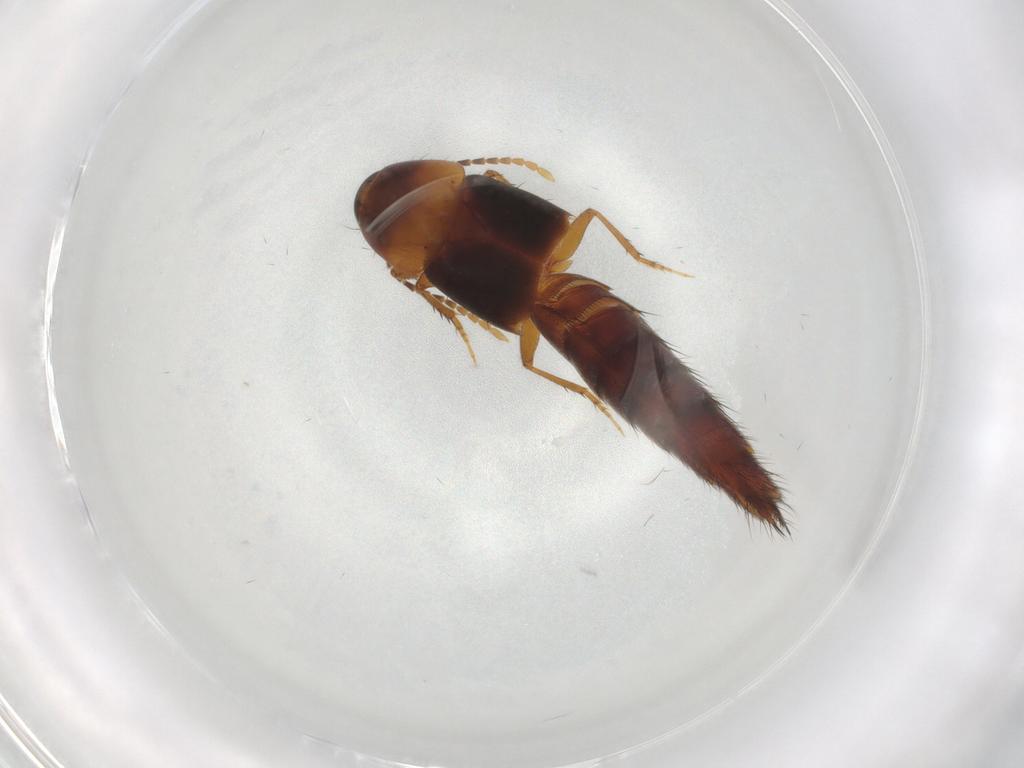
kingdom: Animalia
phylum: Arthropoda
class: Insecta
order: Coleoptera
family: Staphylinidae
